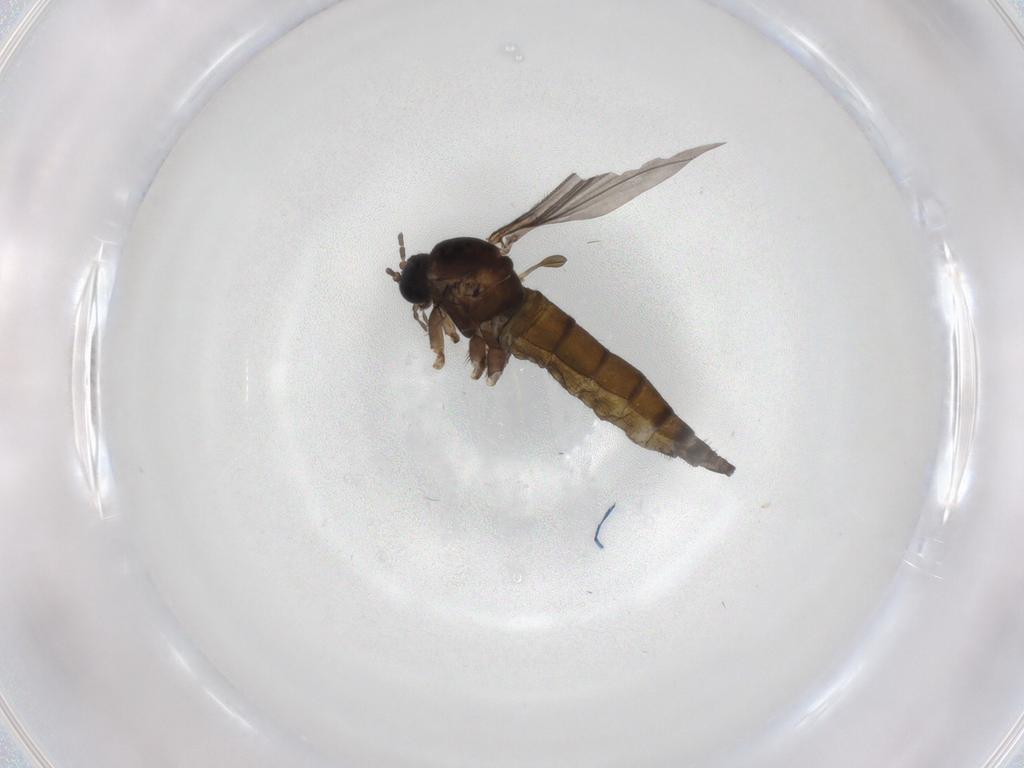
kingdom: Animalia
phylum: Arthropoda
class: Insecta
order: Diptera
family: Sciaridae
